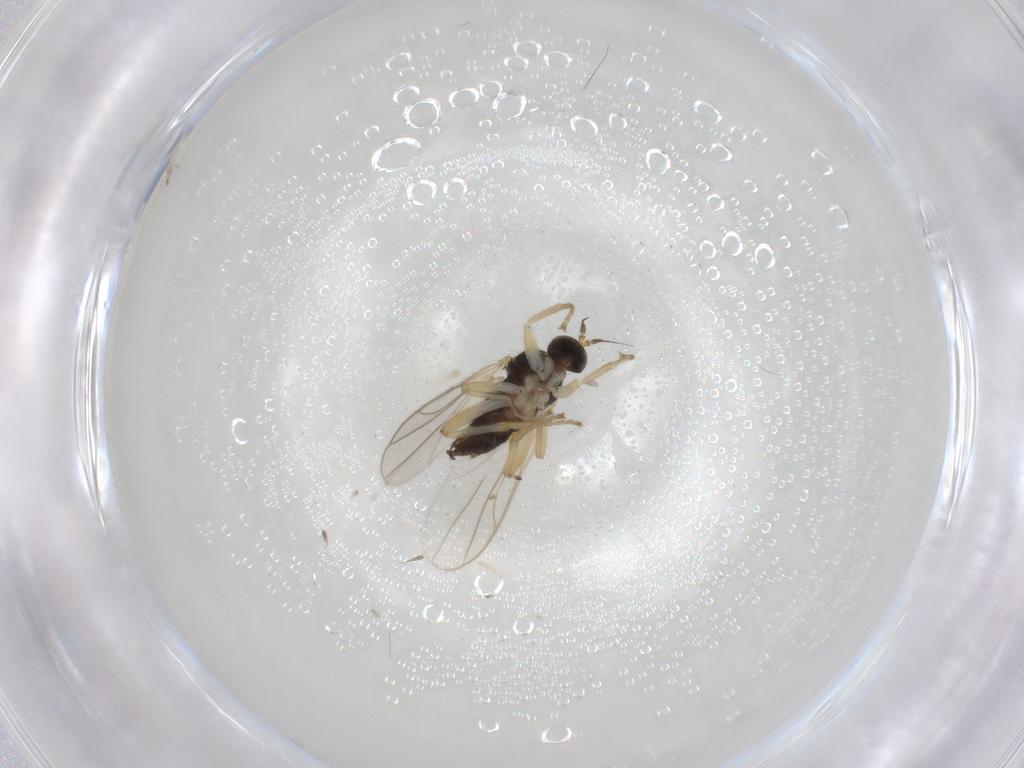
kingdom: Animalia
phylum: Arthropoda
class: Insecta
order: Diptera
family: Hybotidae
